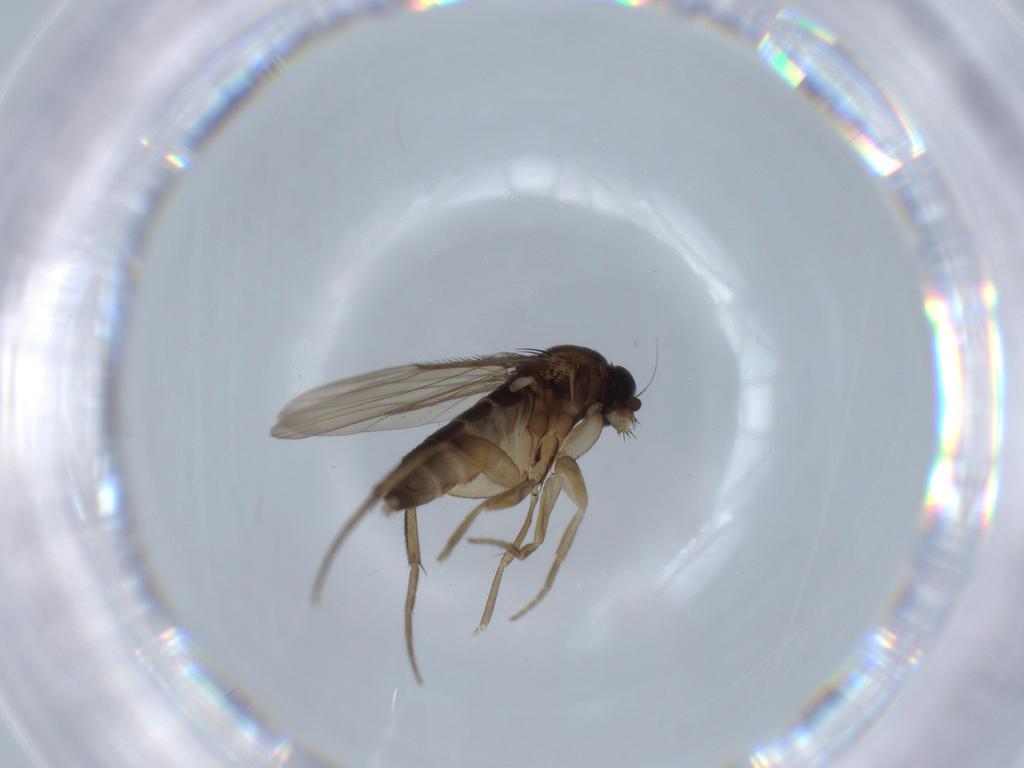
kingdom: Animalia
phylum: Arthropoda
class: Insecta
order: Diptera
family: Phoridae
